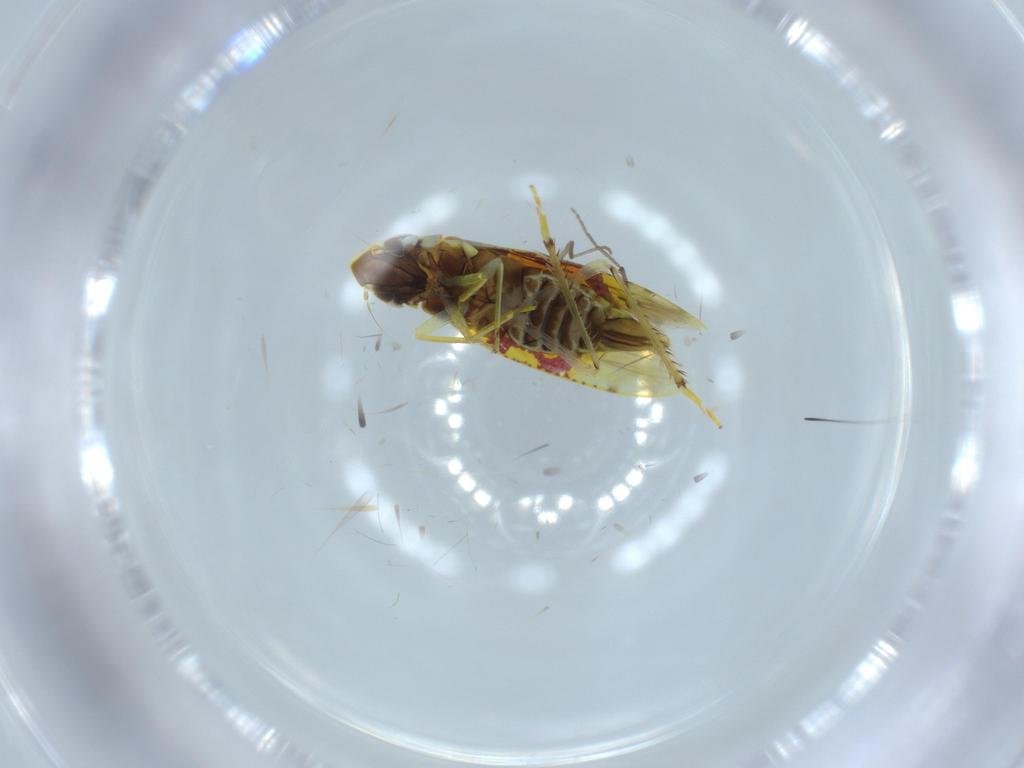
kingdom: Animalia
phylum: Arthropoda
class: Insecta
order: Hemiptera
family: Cicadellidae
